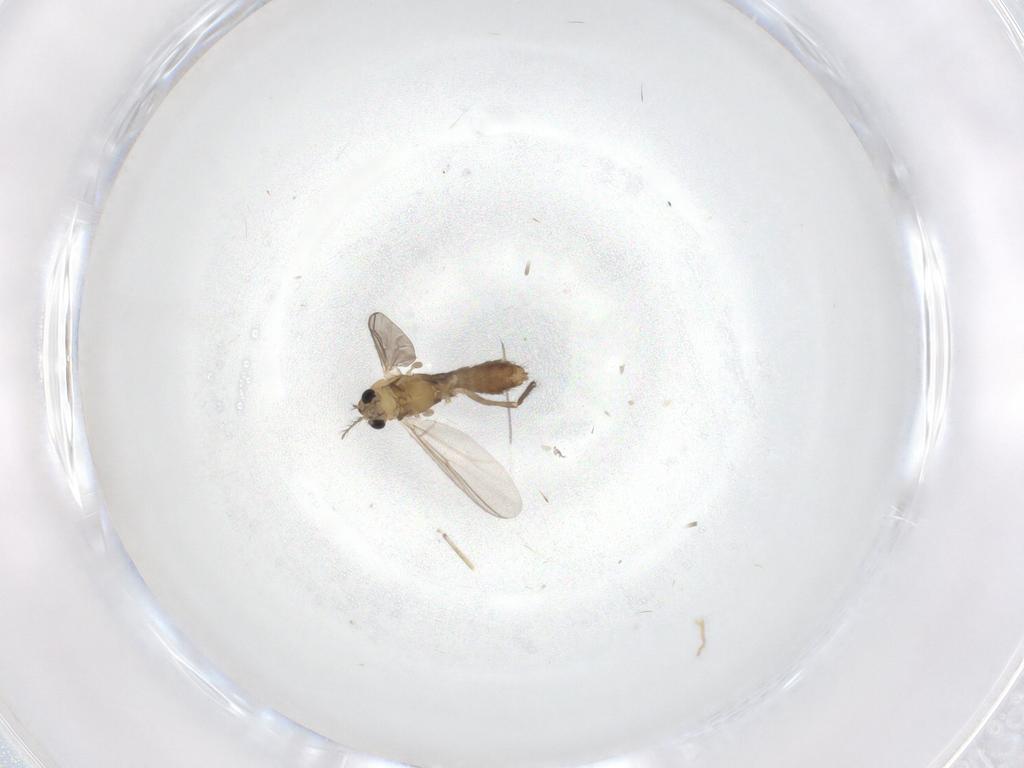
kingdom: Animalia
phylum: Arthropoda
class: Insecta
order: Diptera
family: Chironomidae
